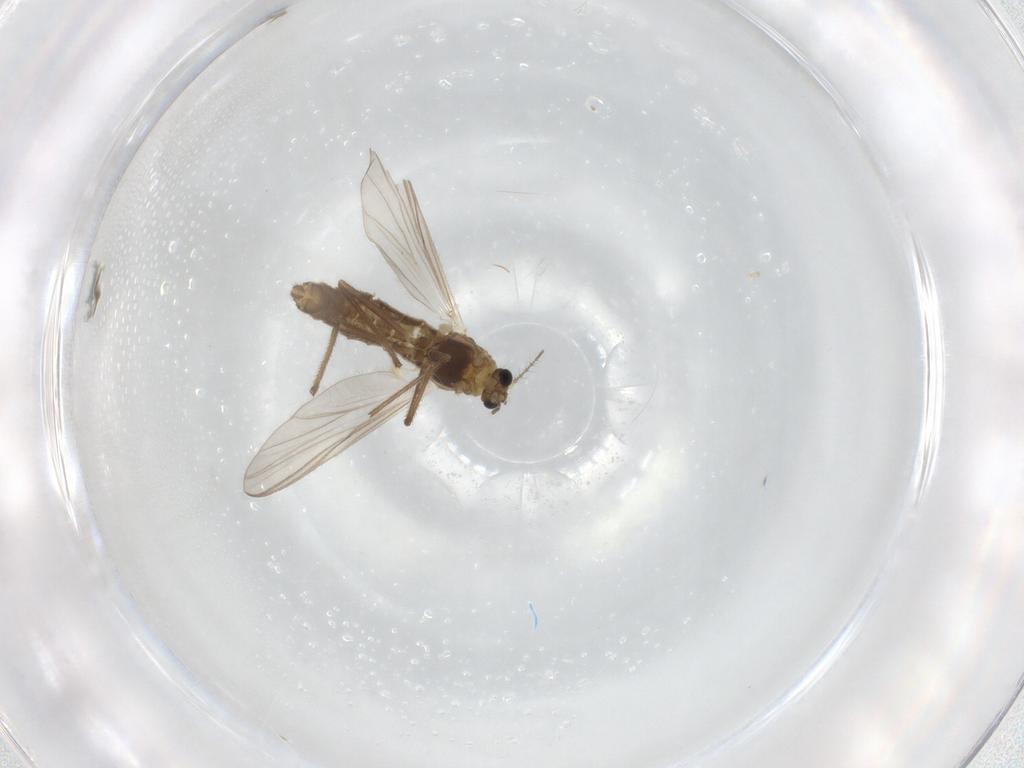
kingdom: Animalia
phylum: Arthropoda
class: Insecta
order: Diptera
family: Chironomidae
